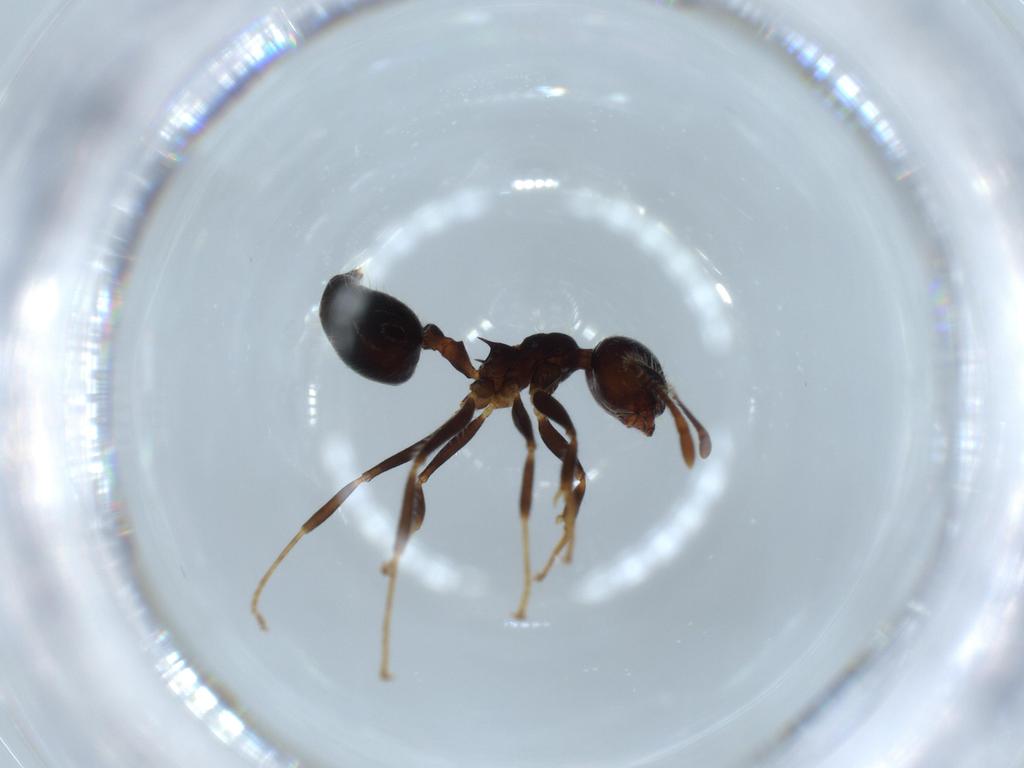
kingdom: Animalia
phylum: Arthropoda
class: Insecta
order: Hymenoptera
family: Formicidae
